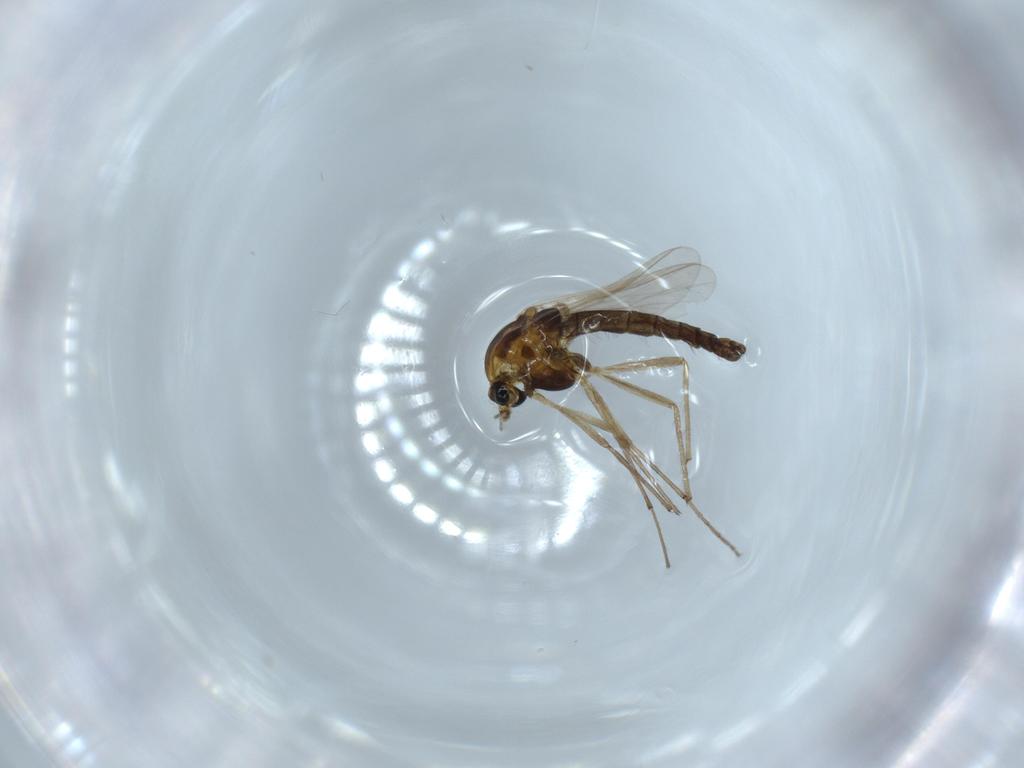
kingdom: Animalia
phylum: Arthropoda
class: Insecta
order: Diptera
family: Chironomidae
